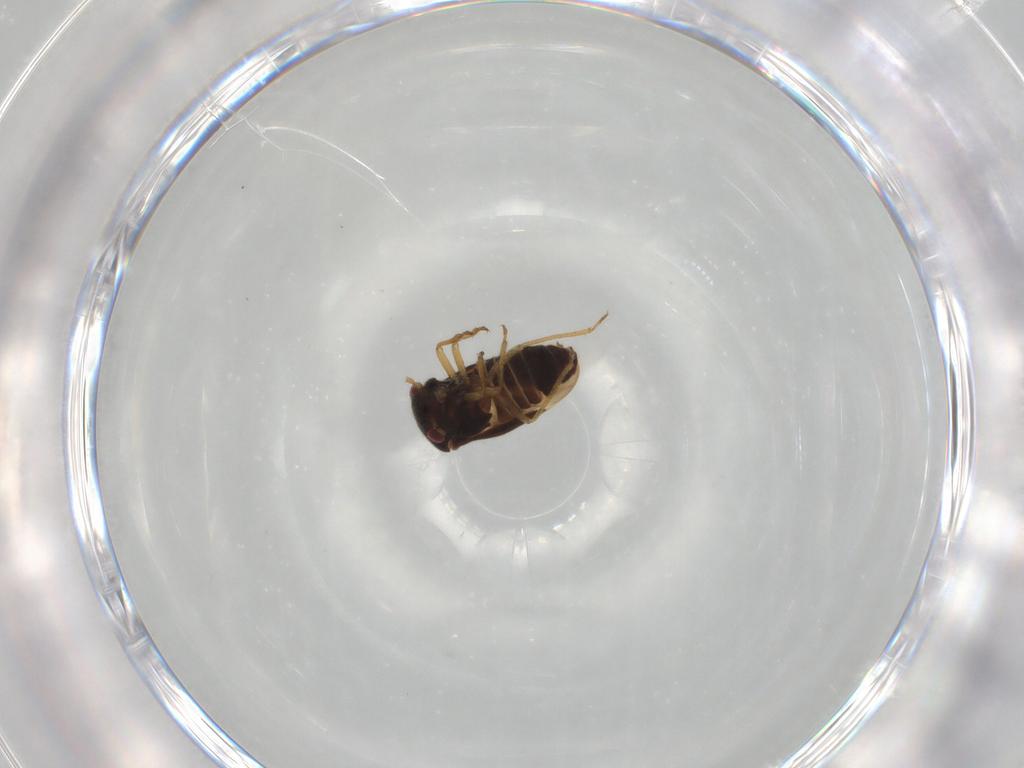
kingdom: Animalia
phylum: Arthropoda
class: Insecta
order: Hemiptera
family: Schizopteridae
